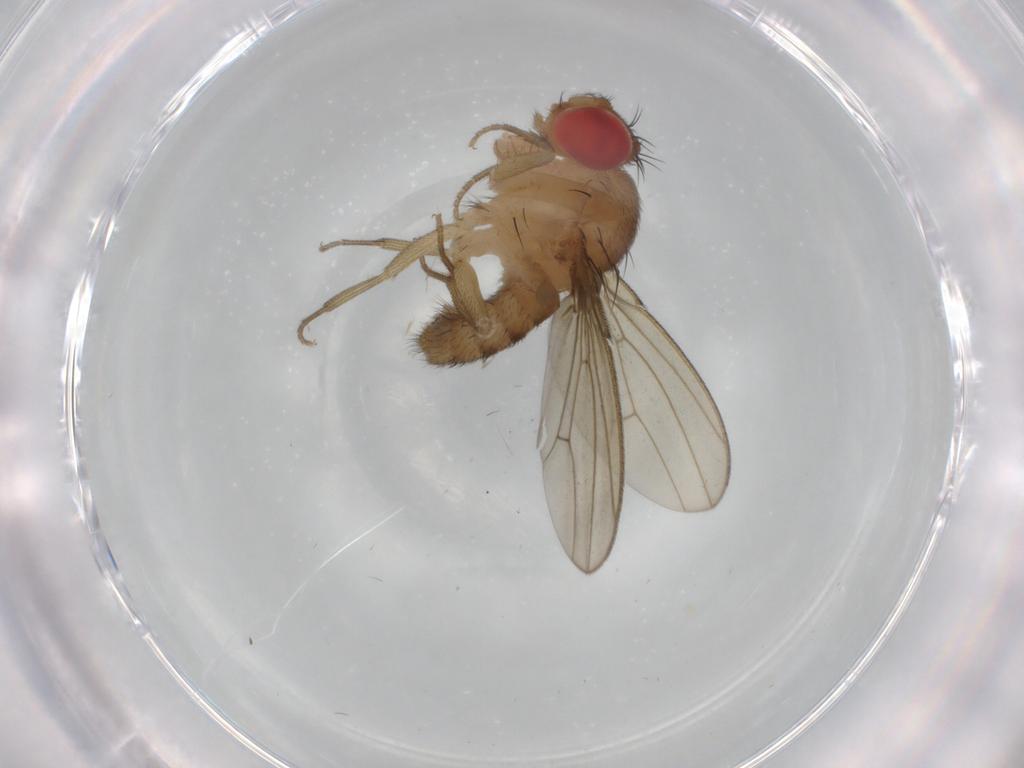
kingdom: Animalia
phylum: Arthropoda
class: Insecta
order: Diptera
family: Drosophilidae
